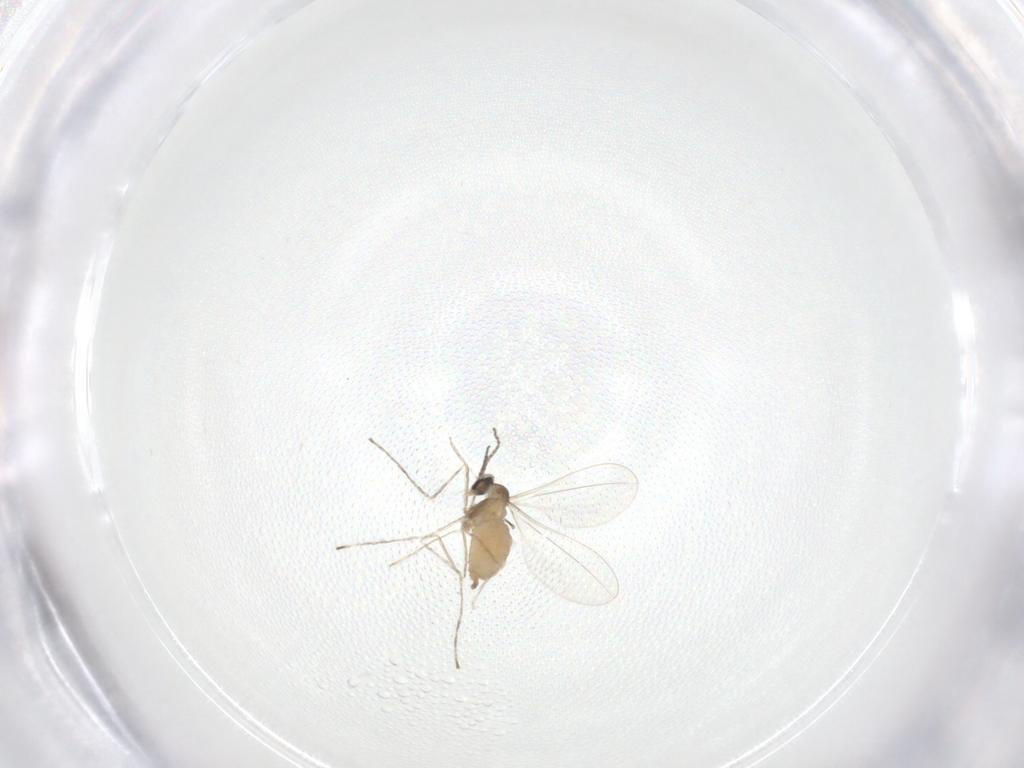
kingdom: Animalia
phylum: Arthropoda
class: Insecta
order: Diptera
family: Cecidomyiidae
